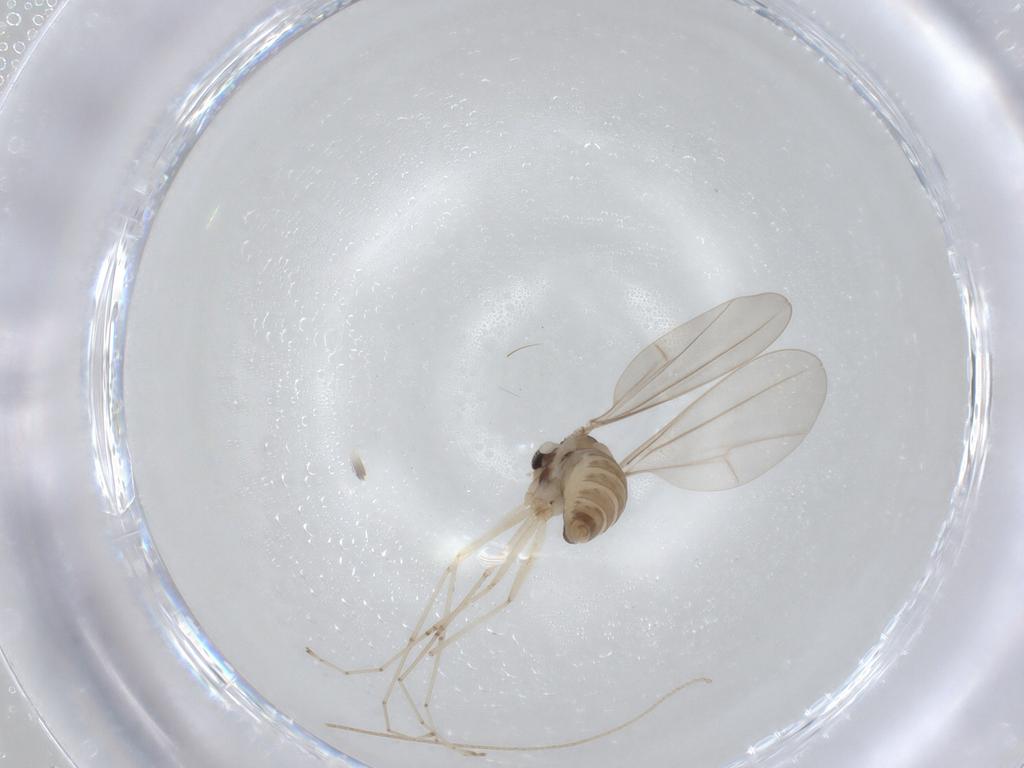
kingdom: Animalia
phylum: Arthropoda
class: Insecta
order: Lepidoptera
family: Cosmopterigidae
